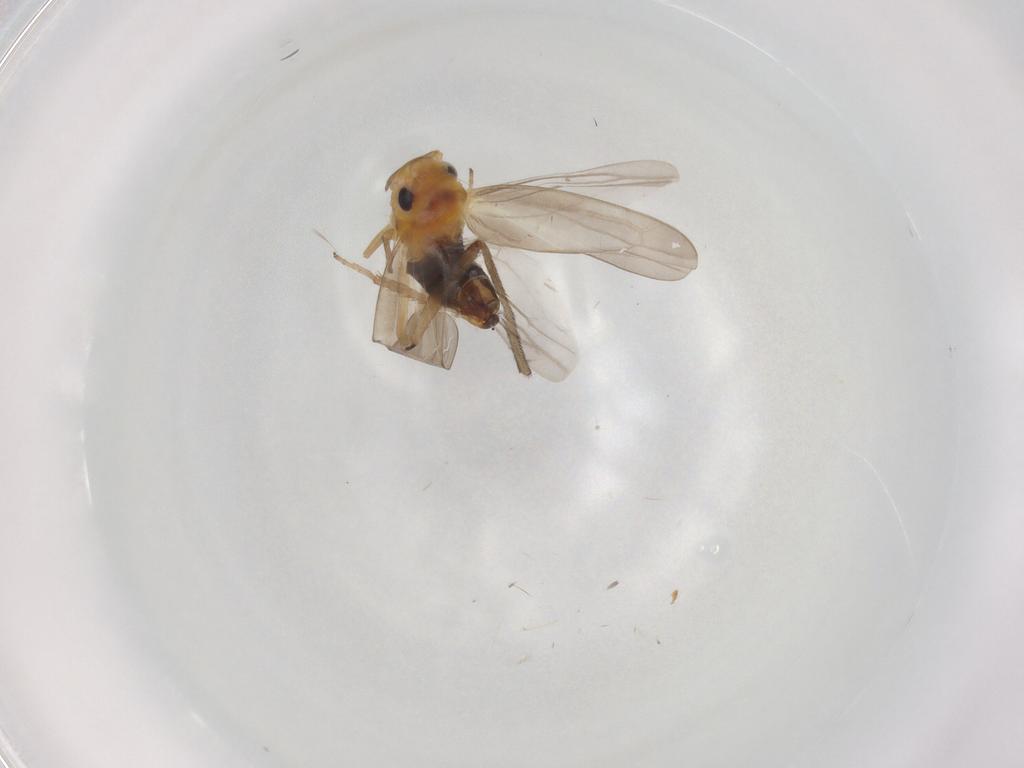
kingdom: Animalia
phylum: Arthropoda
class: Insecta
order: Hemiptera
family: Cicadellidae
